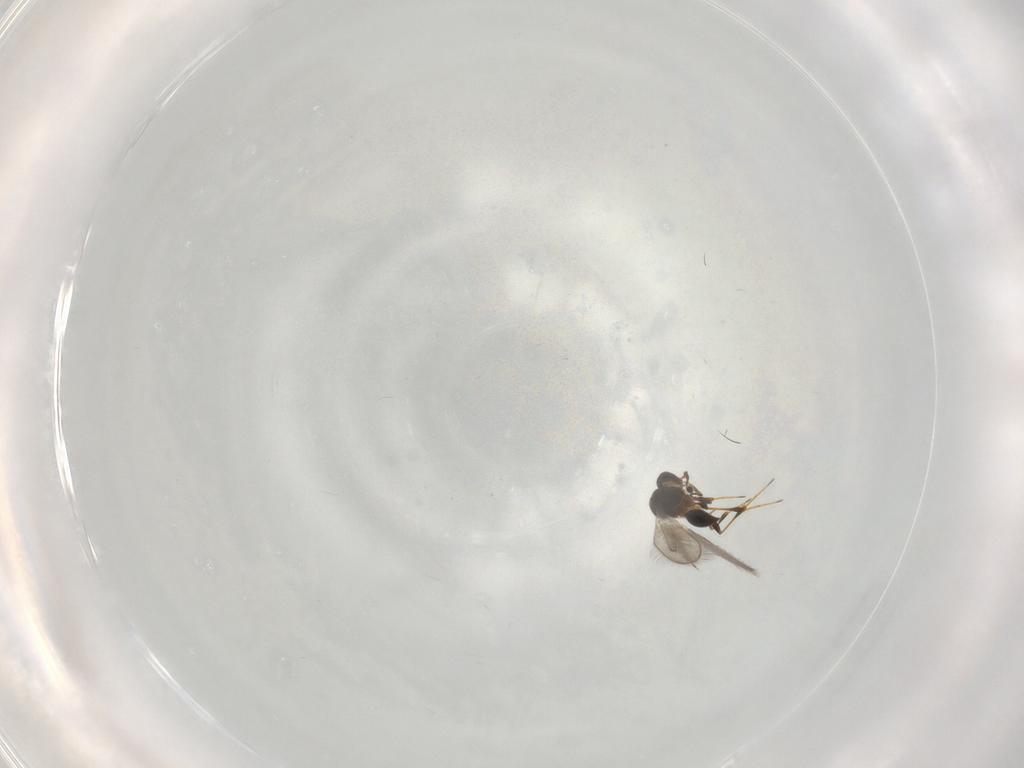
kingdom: Animalia
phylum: Arthropoda
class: Insecta
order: Hymenoptera
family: Platygastridae
